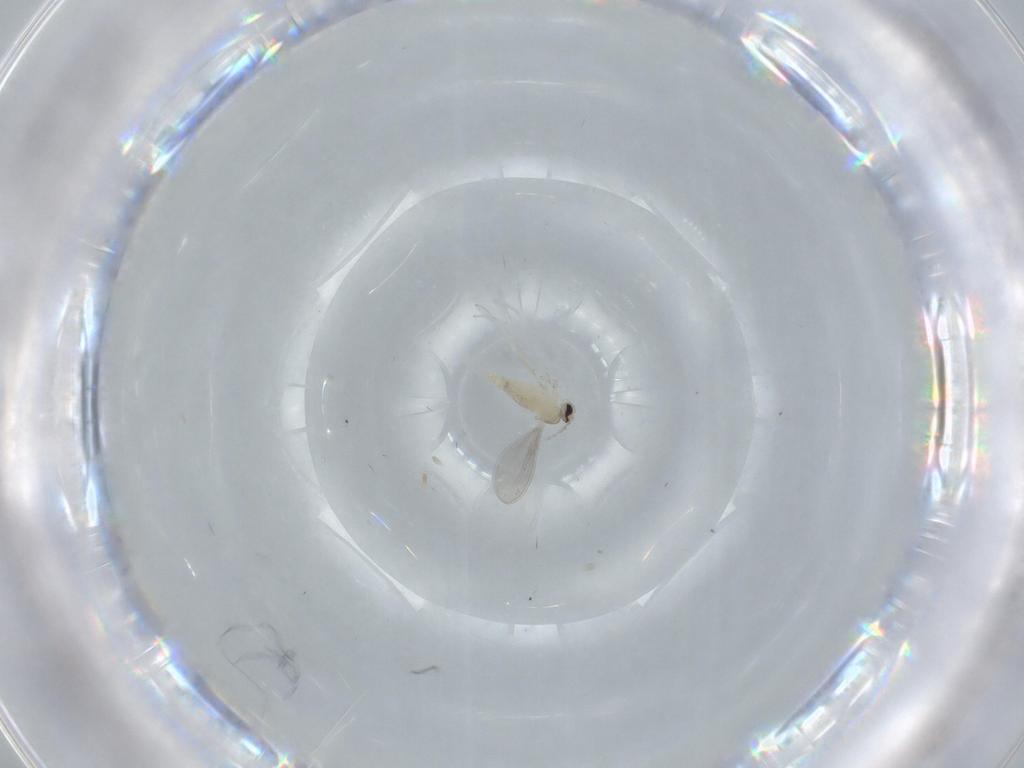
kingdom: Animalia
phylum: Arthropoda
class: Insecta
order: Diptera
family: Cecidomyiidae
